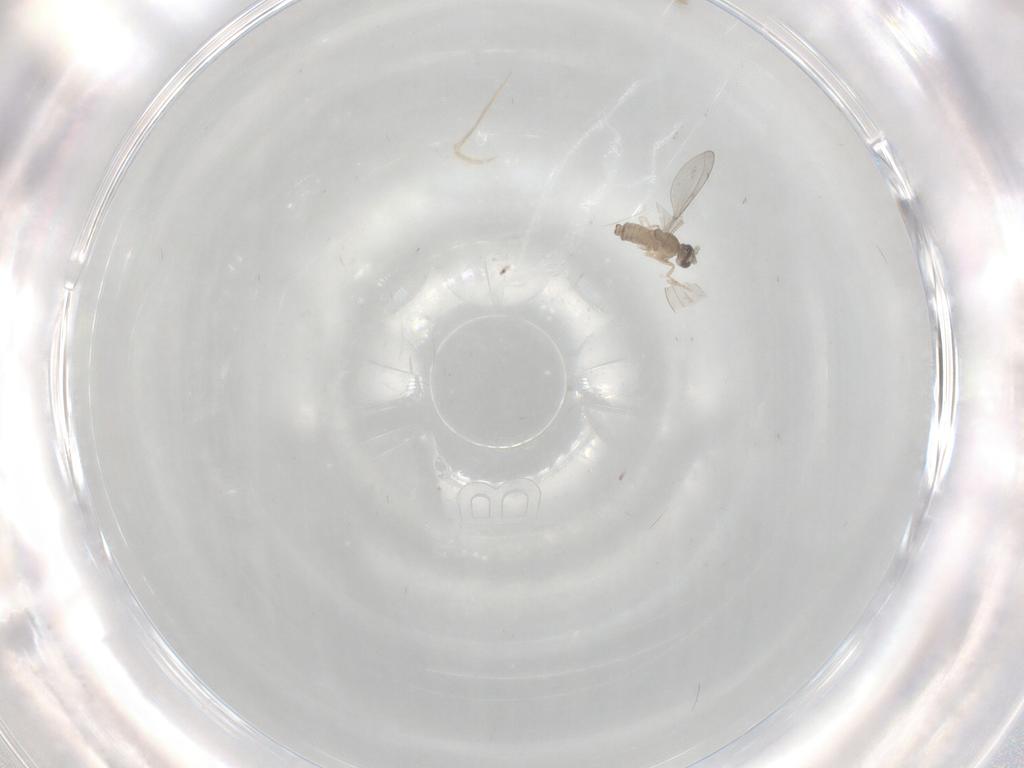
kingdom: Animalia
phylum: Arthropoda
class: Insecta
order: Diptera
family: Cecidomyiidae
